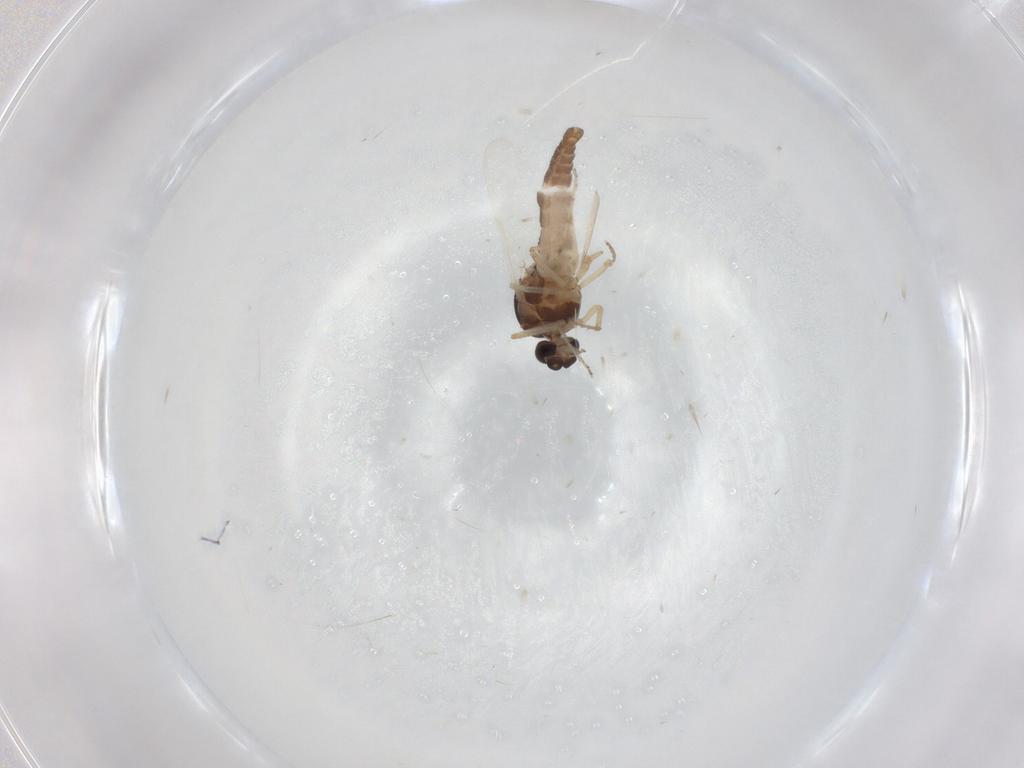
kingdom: Animalia
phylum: Arthropoda
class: Insecta
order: Diptera
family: Ceratopogonidae
